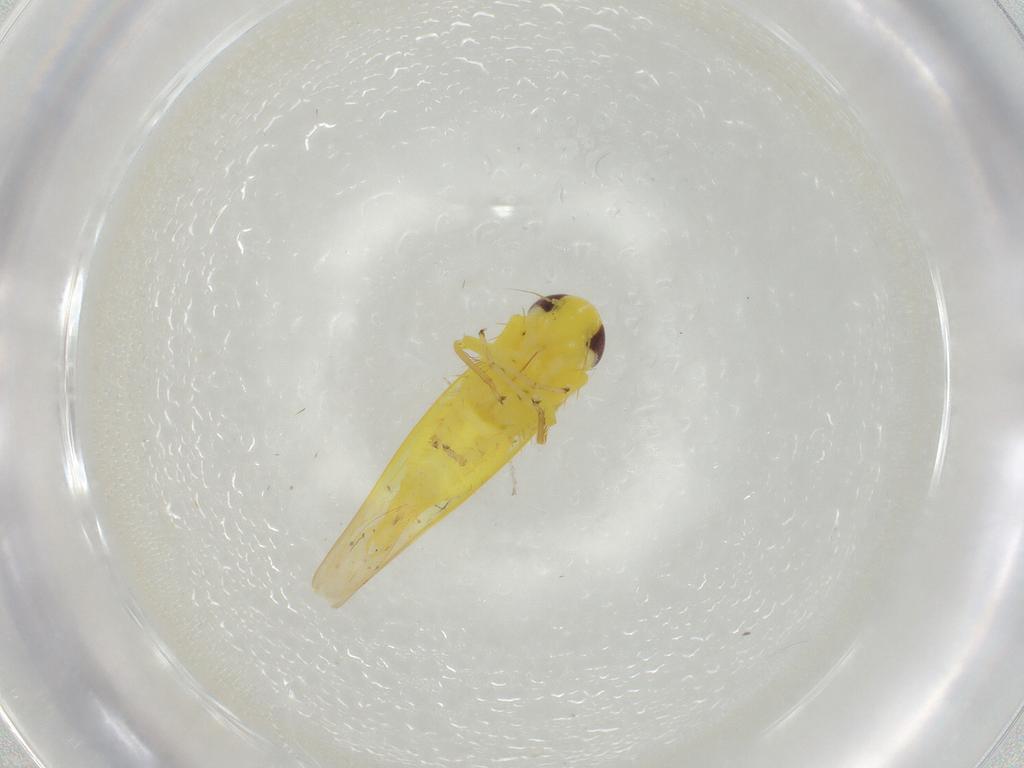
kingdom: Animalia
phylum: Arthropoda
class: Insecta
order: Hemiptera
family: Cicadellidae
